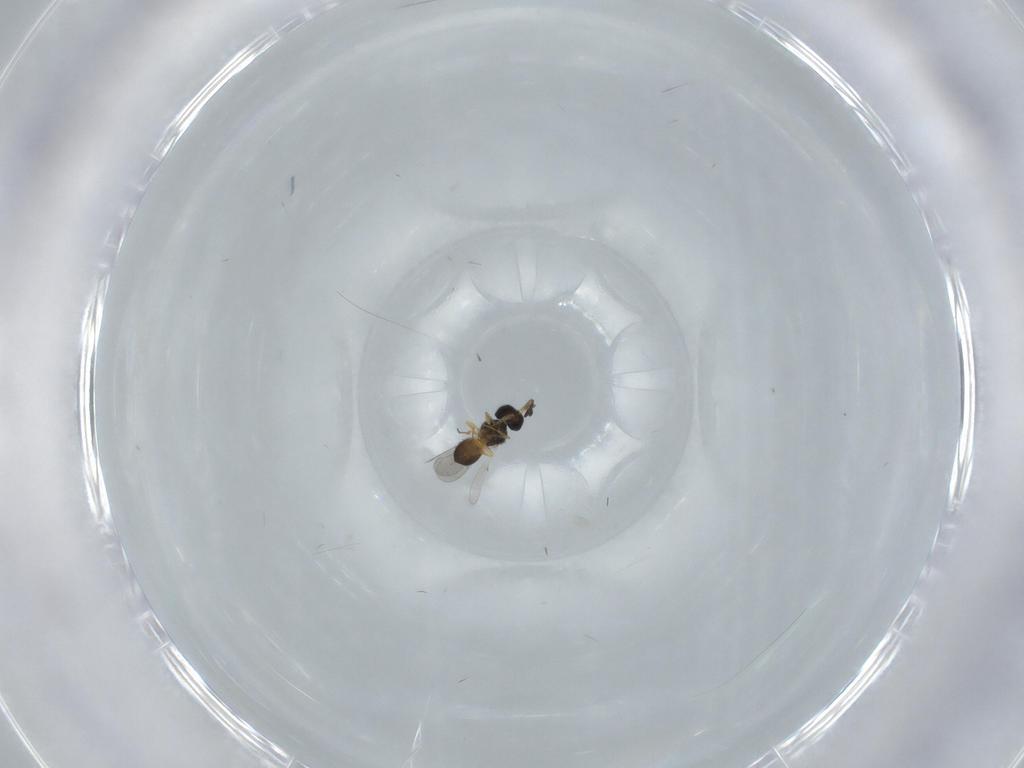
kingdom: Animalia
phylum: Arthropoda
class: Insecta
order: Hymenoptera
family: Scelionidae
